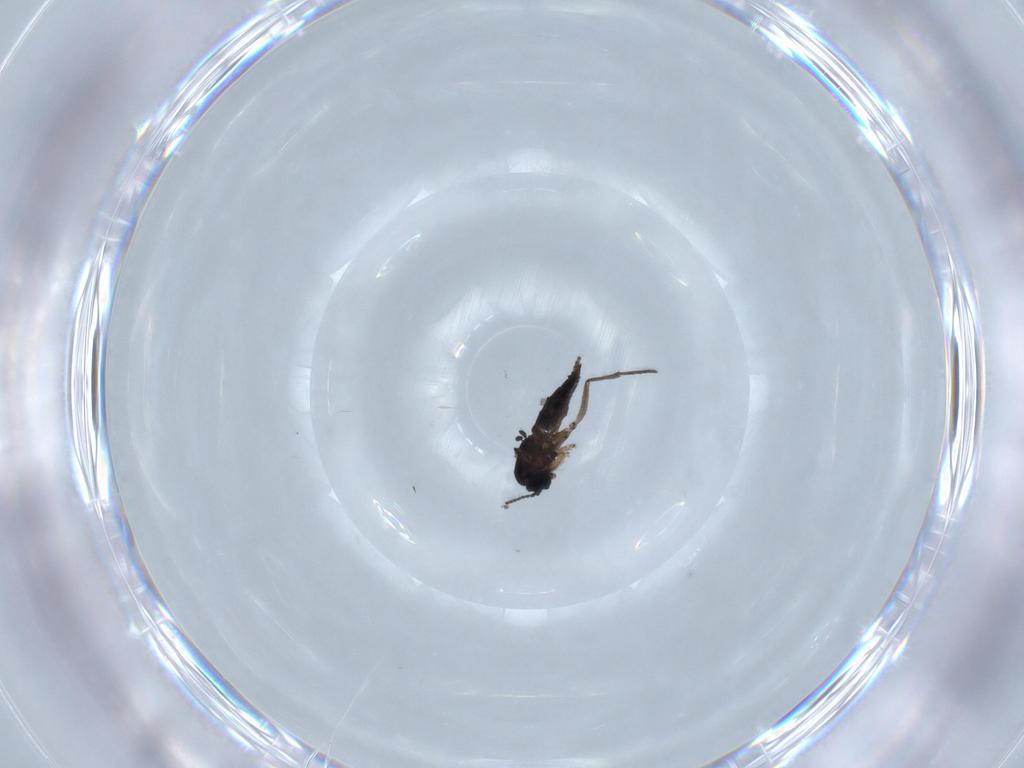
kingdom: Animalia
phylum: Arthropoda
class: Insecta
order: Diptera
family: Sciaridae
